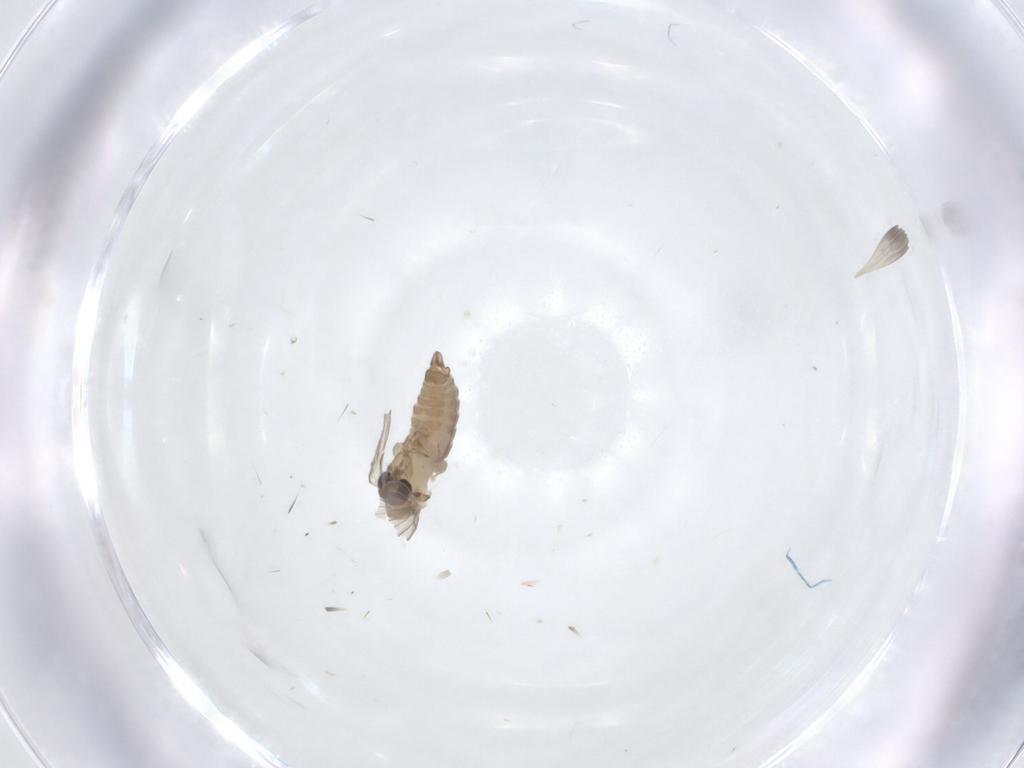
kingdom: Animalia
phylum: Arthropoda
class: Insecta
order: Diptera
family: Psychodidae
